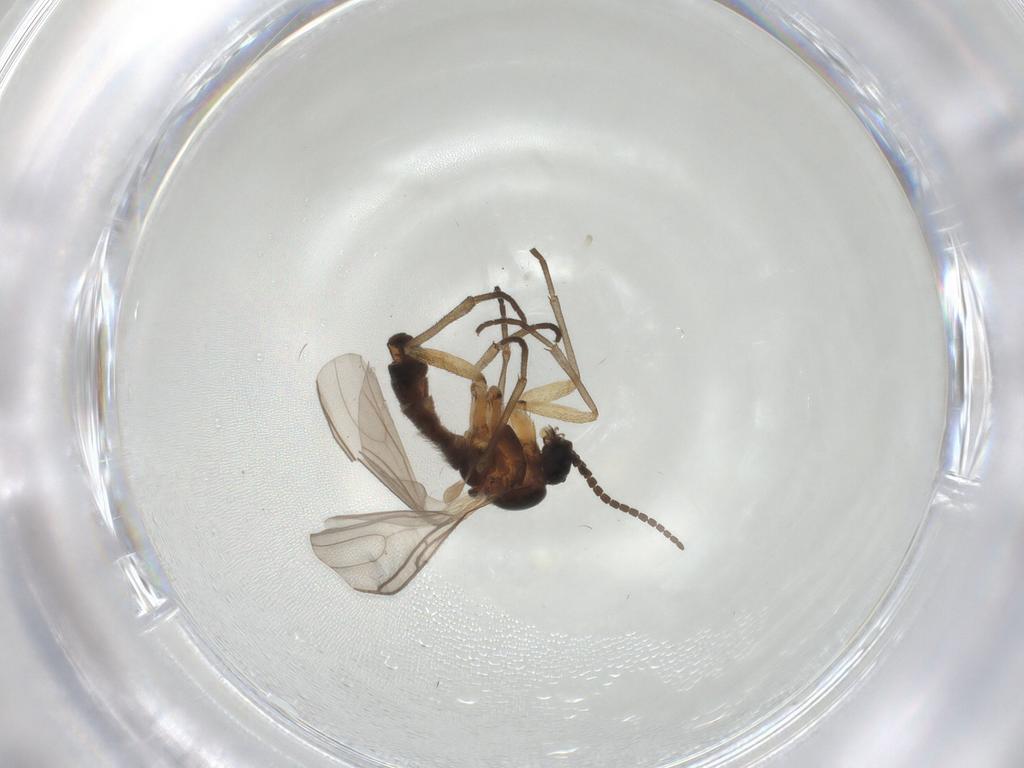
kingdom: Animalia
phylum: Arthropoda
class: Insecta
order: Diptera
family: Sciaridae
